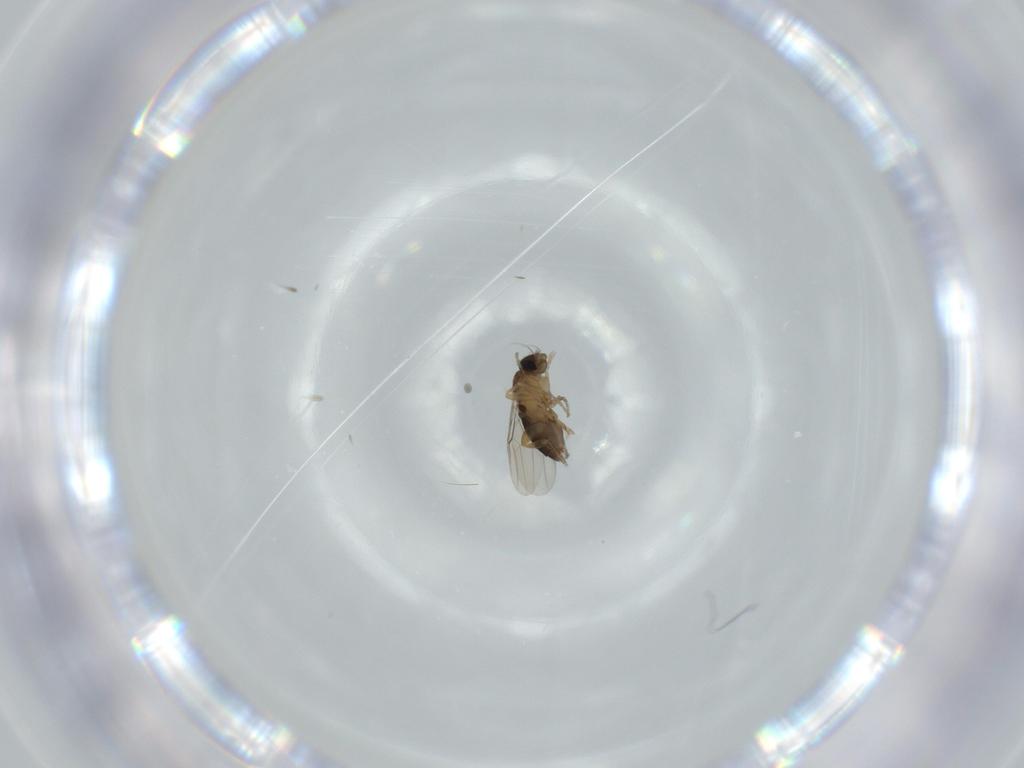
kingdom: Animalia
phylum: Arthropoda
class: Insecta
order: Diptera
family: Phoridae
